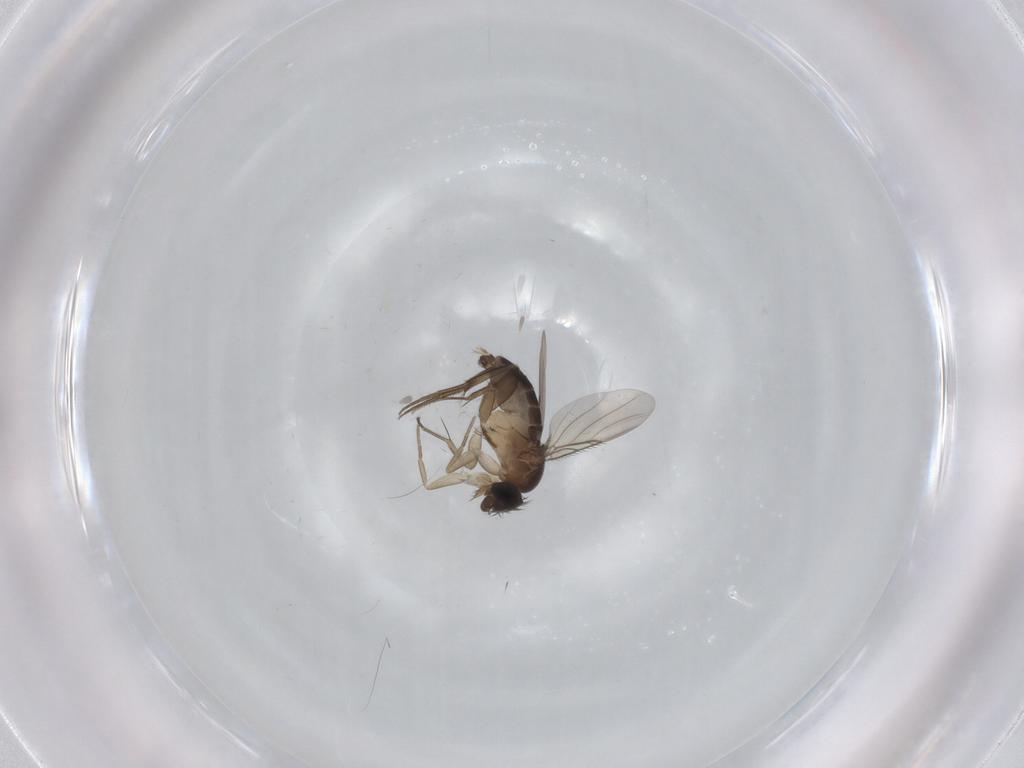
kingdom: Animalia
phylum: Arthropoda
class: Insecta
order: Diptera
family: Phoridae
